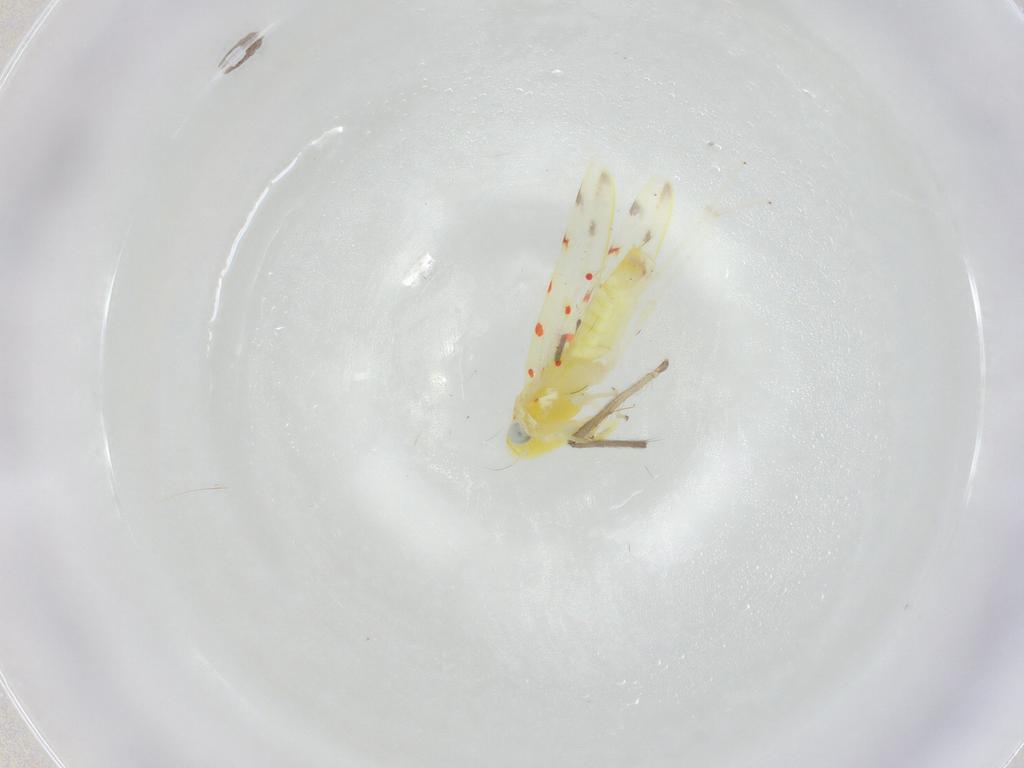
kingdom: Animalia
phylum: Arthropoda
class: Insecta
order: Hemiptera
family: Cicadellidae
